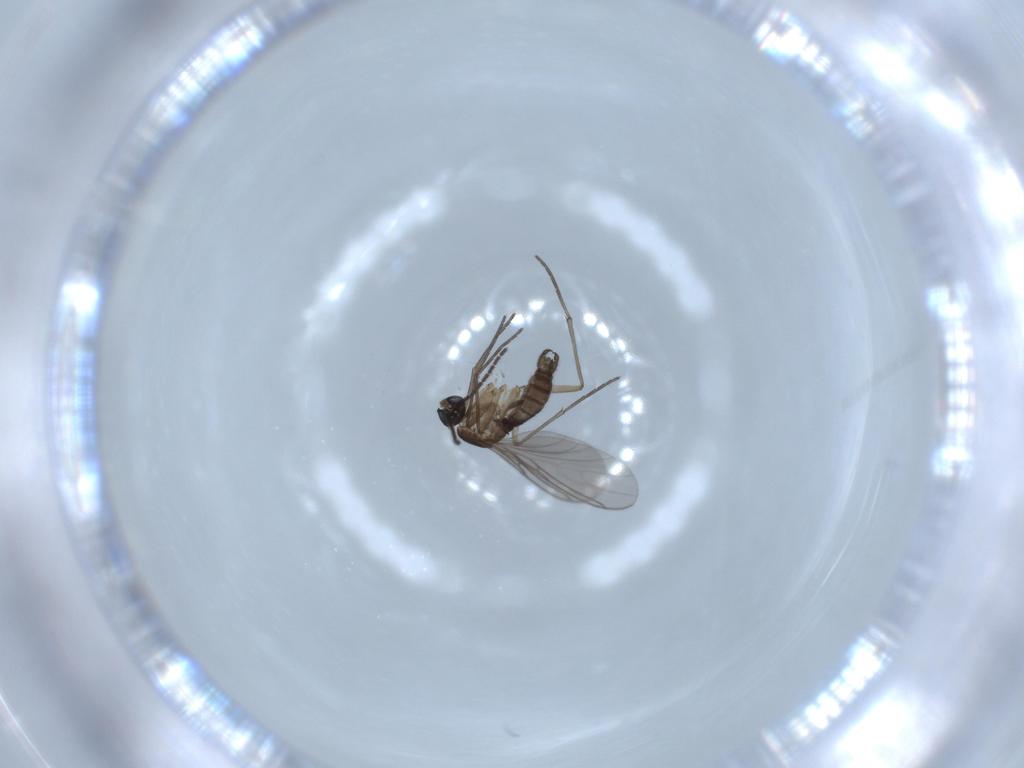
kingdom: Animalia
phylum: Arthropoda
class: Insecta
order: Diptera
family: Sciaridae
